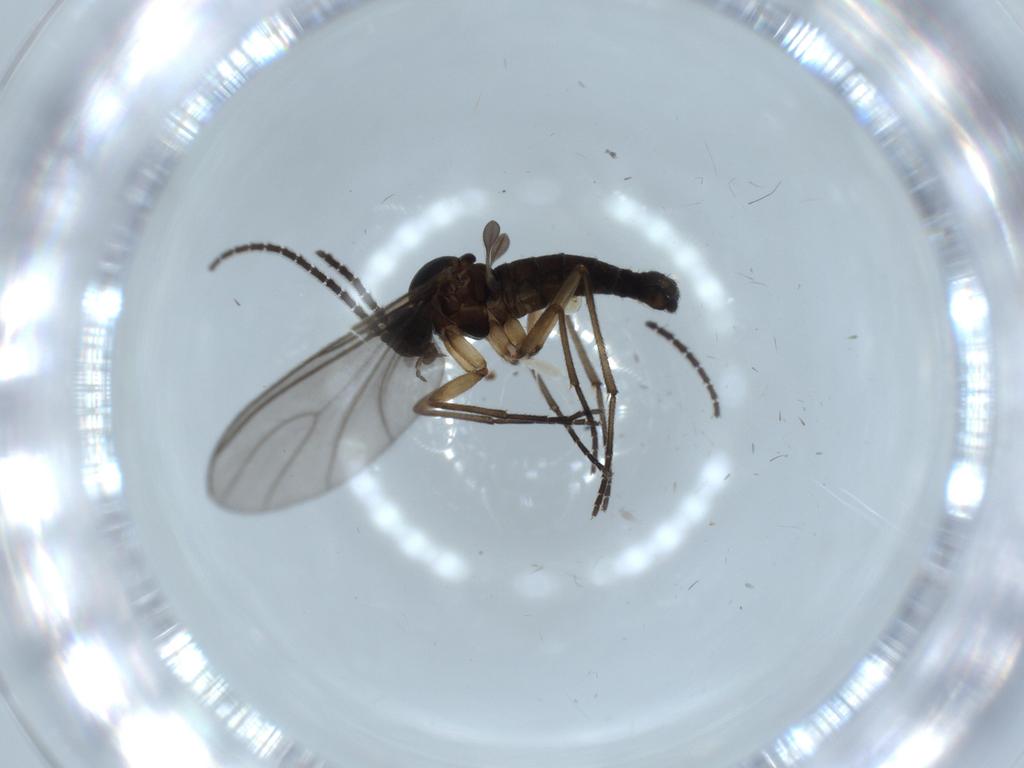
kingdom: Animalia
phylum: Arthropoda
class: Insecta
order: Diptera
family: Sciaridae
